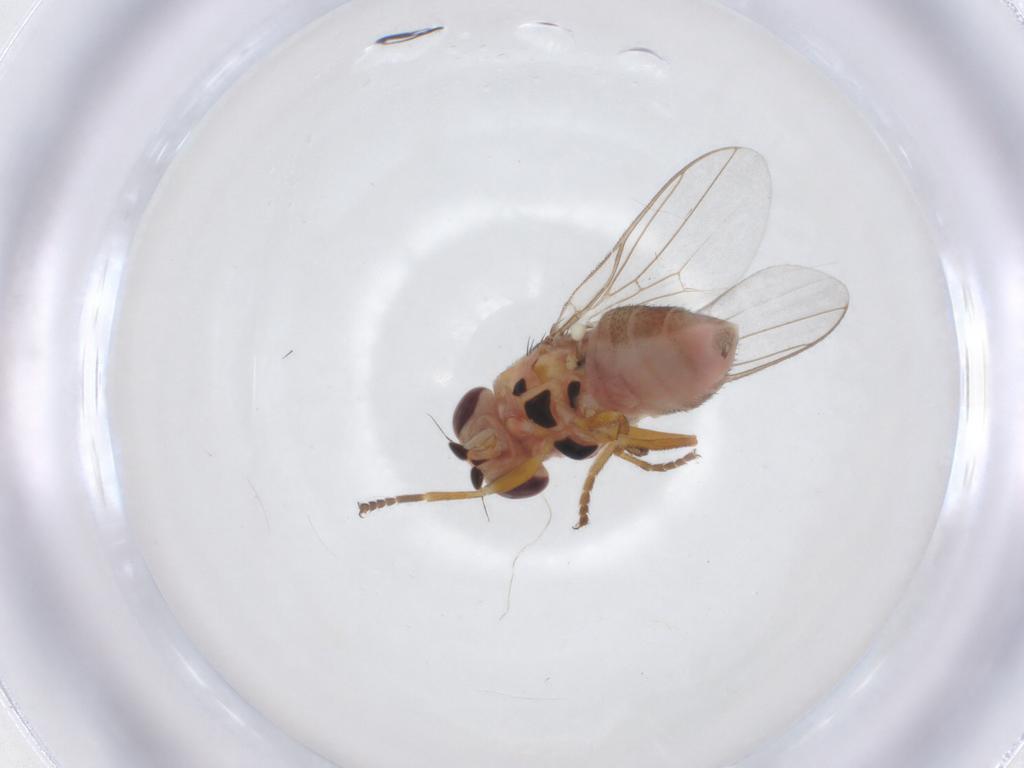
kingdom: Animalia
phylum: Arthropoda
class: Insecta
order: Diptera
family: Chloropidae
